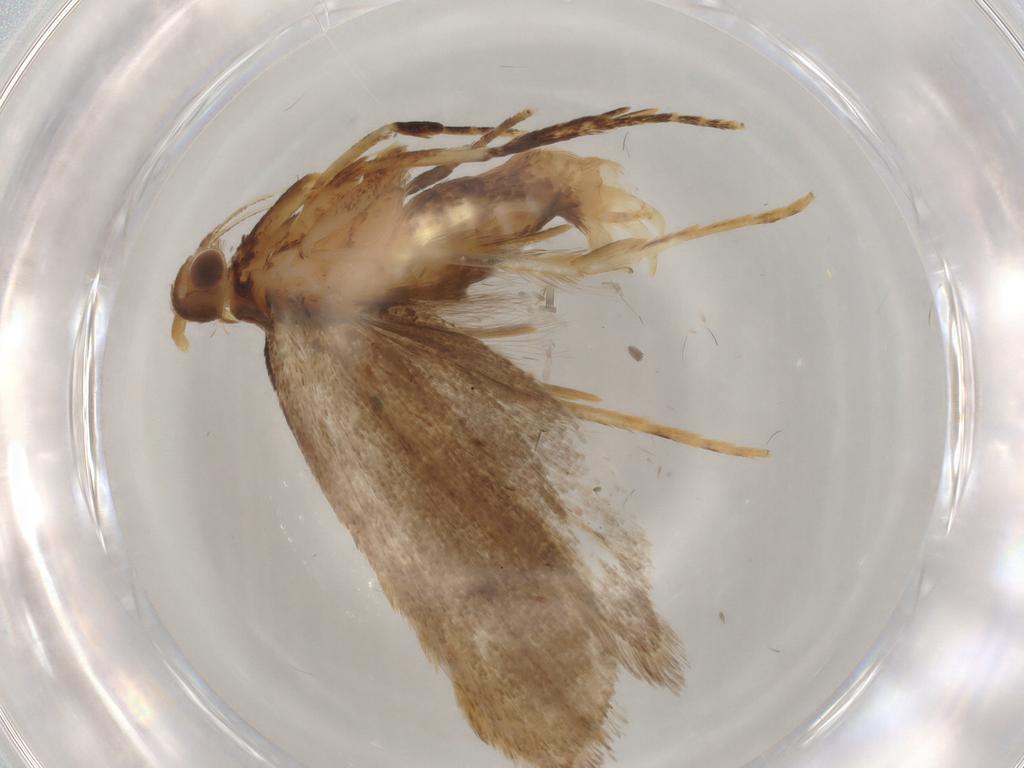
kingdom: Animalia
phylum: Arthropoda
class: Insecta
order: Lepidoptera
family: Lecithoceridae
